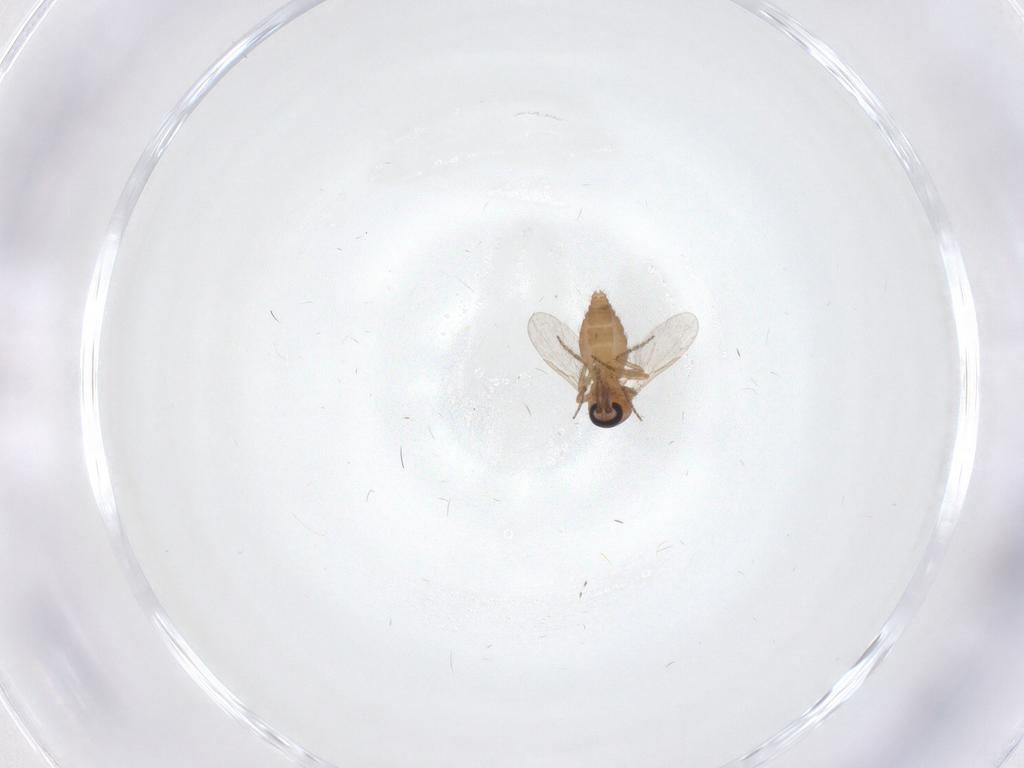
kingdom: Animalia
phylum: Arthropoda
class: Insecta
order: Diptera
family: Ceratopogonidae
